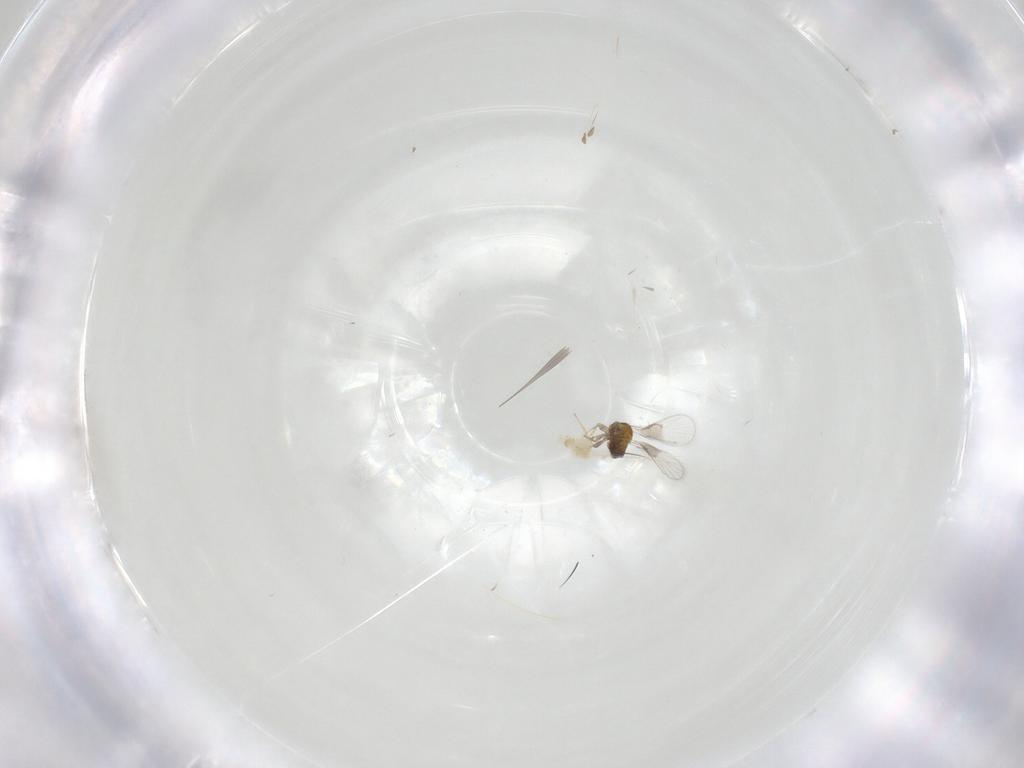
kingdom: Animalia
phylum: Arthropoda
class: Insecta
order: Hymenoptera
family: Trichogrammatidae
